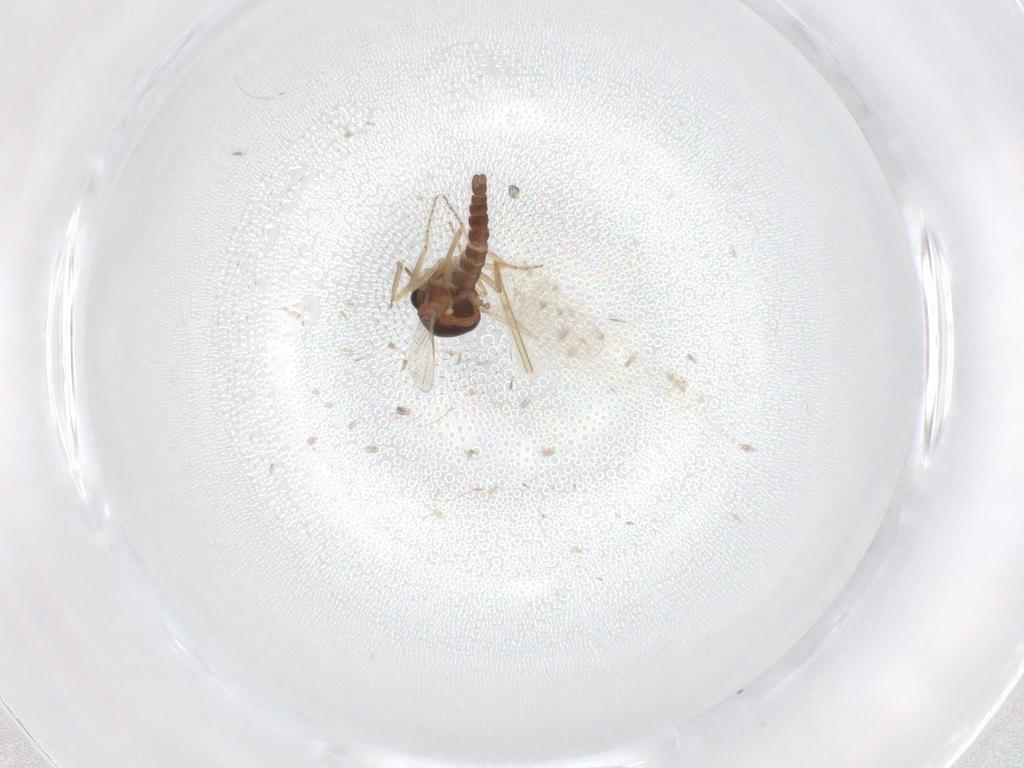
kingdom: Animalia
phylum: Arthropoda
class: Insecta
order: Diptera
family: Ceratopogonidae
